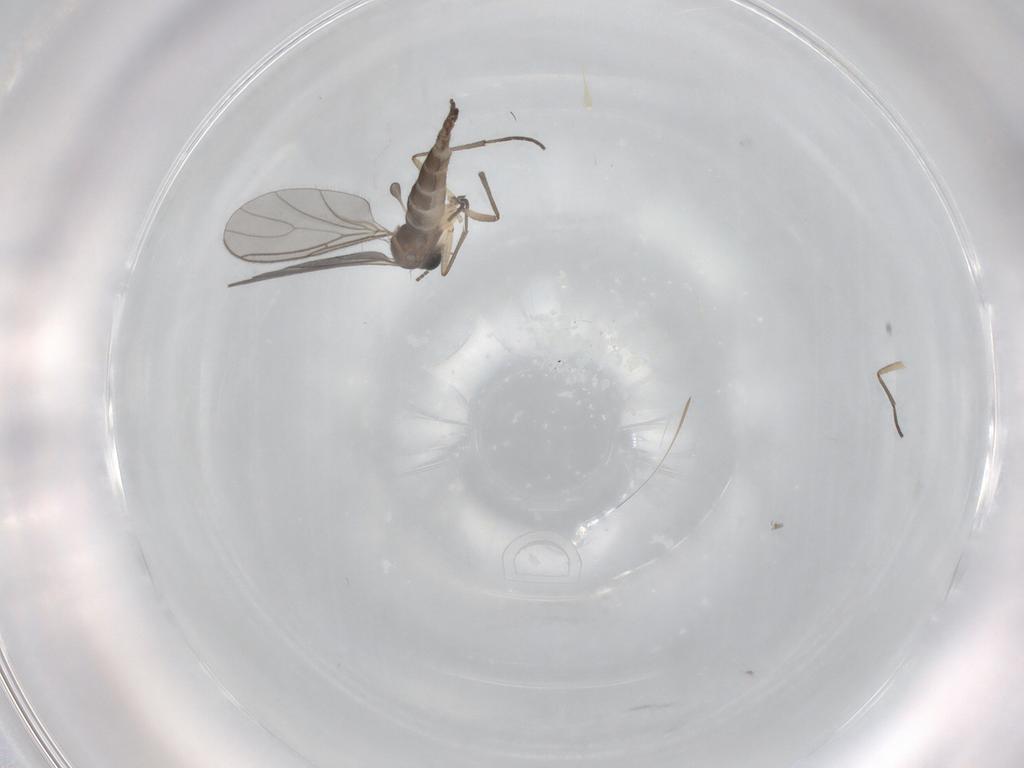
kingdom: Animalia
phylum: Arthropoda
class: Insecta
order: Diptera
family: Sciaridae
